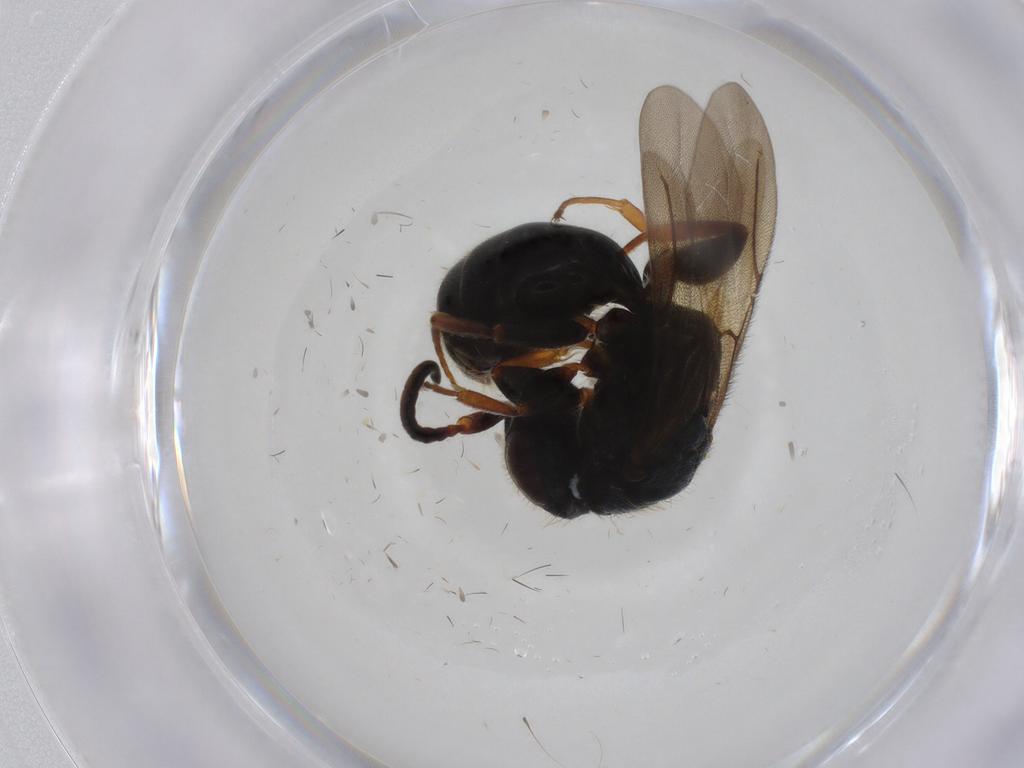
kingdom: Animalia
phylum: Arthropoda
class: Insecta
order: Hymenoptera
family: Bethylidae
